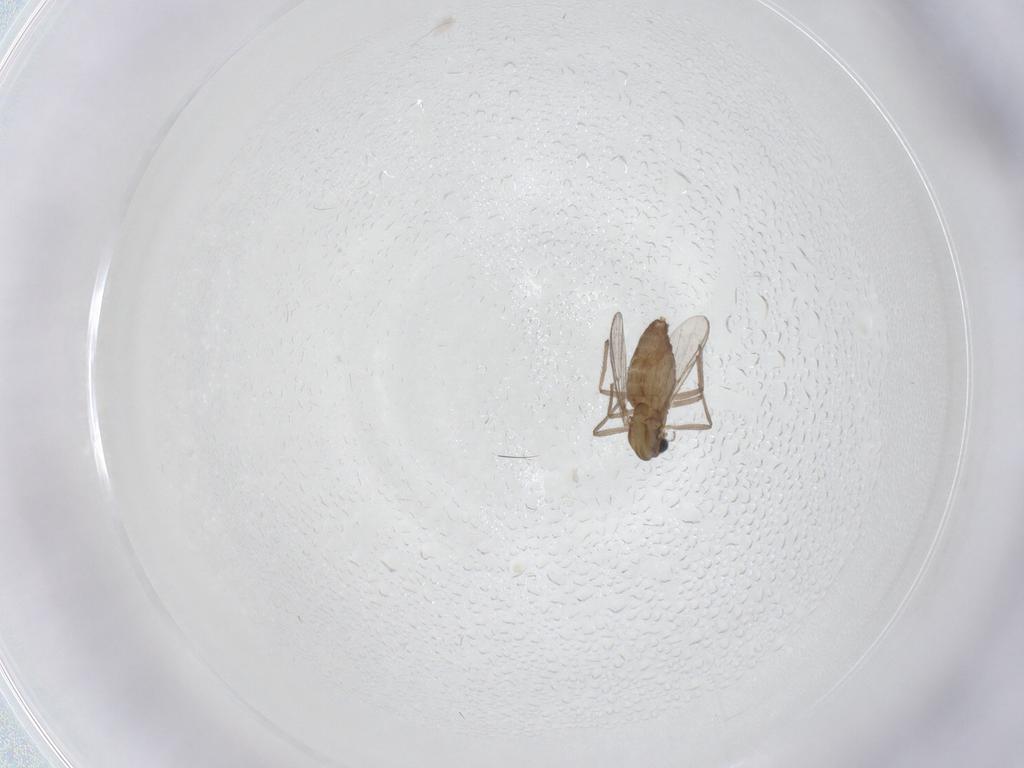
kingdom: Animalia
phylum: Arthropoda
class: Insecta
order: Diptera
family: Chironomidae
